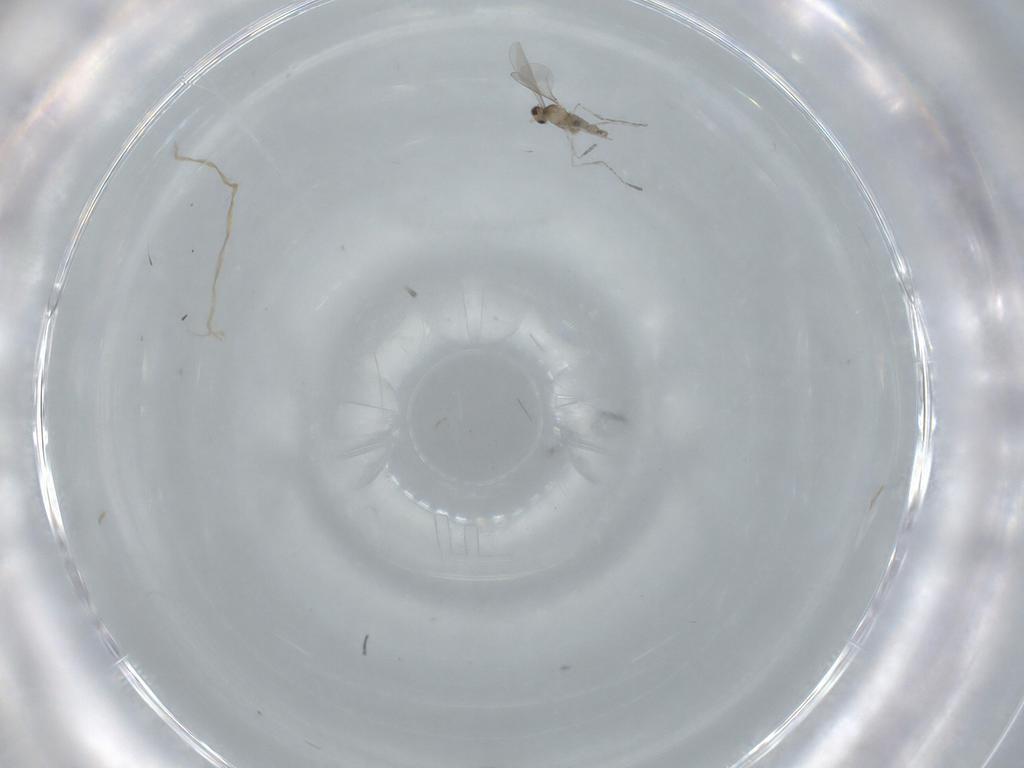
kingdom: Animalia
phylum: Arthropoda
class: Insecta
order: Diptera
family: Cecidomyiidae
